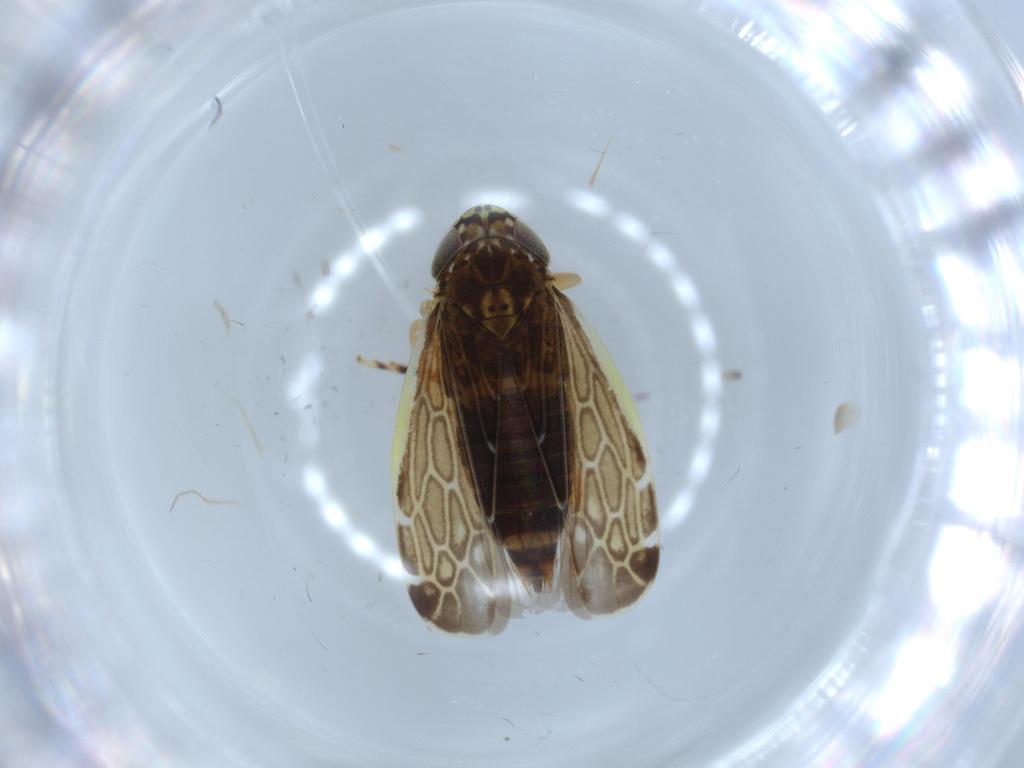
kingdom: Animalia
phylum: Arthropoda
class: Insecta
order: Hemiptera
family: Cicadellidae
